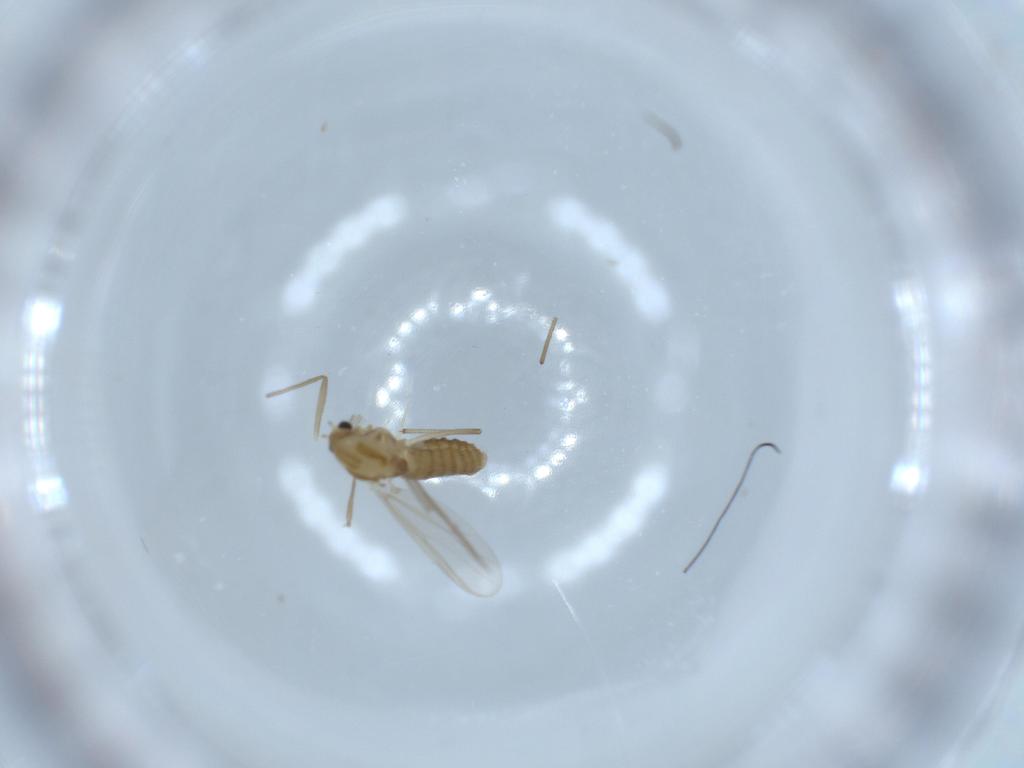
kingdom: Animalia
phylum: Arthropoda
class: Insecta
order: Diptera
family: Chironomidae
